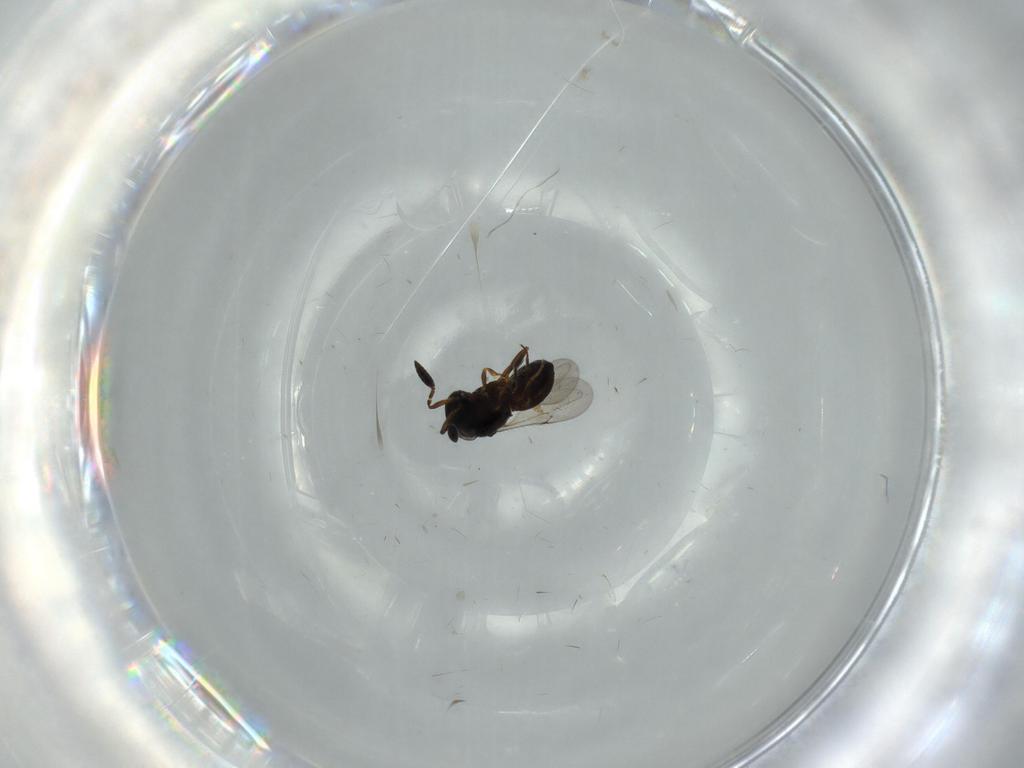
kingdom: Animalia
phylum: Arthropoda
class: Insecta
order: Hymenoptera
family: Scelionidae
